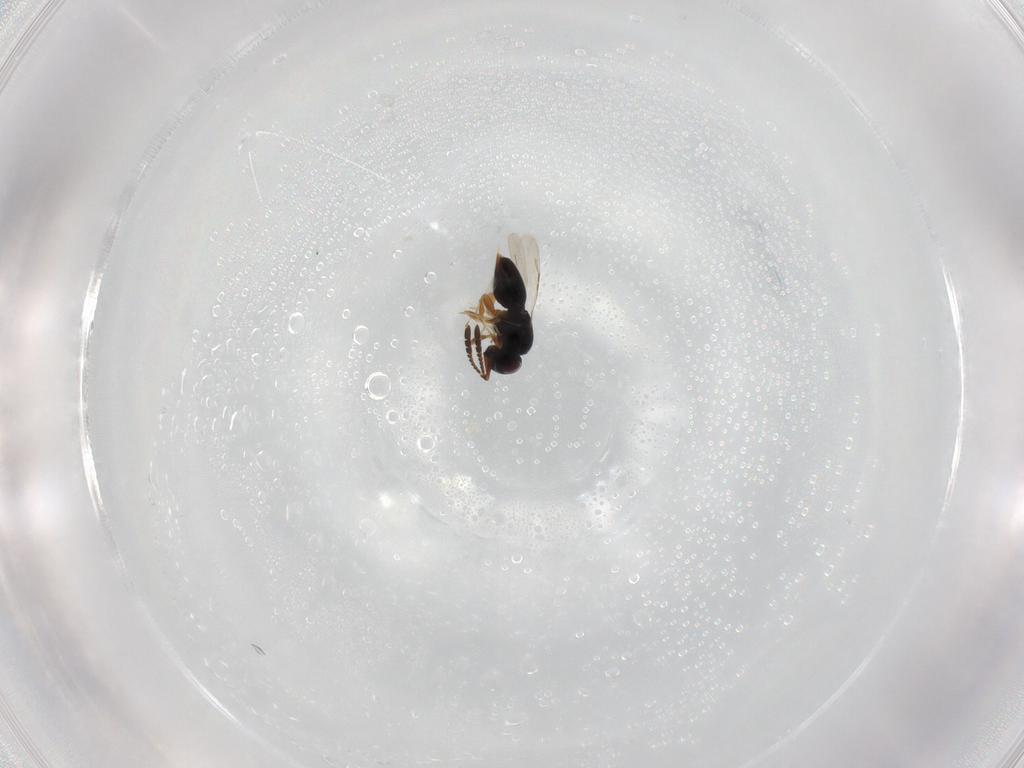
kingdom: Animalia
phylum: Arthropoda
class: Insecta
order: Hymenoptera
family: Ceraphronidae
